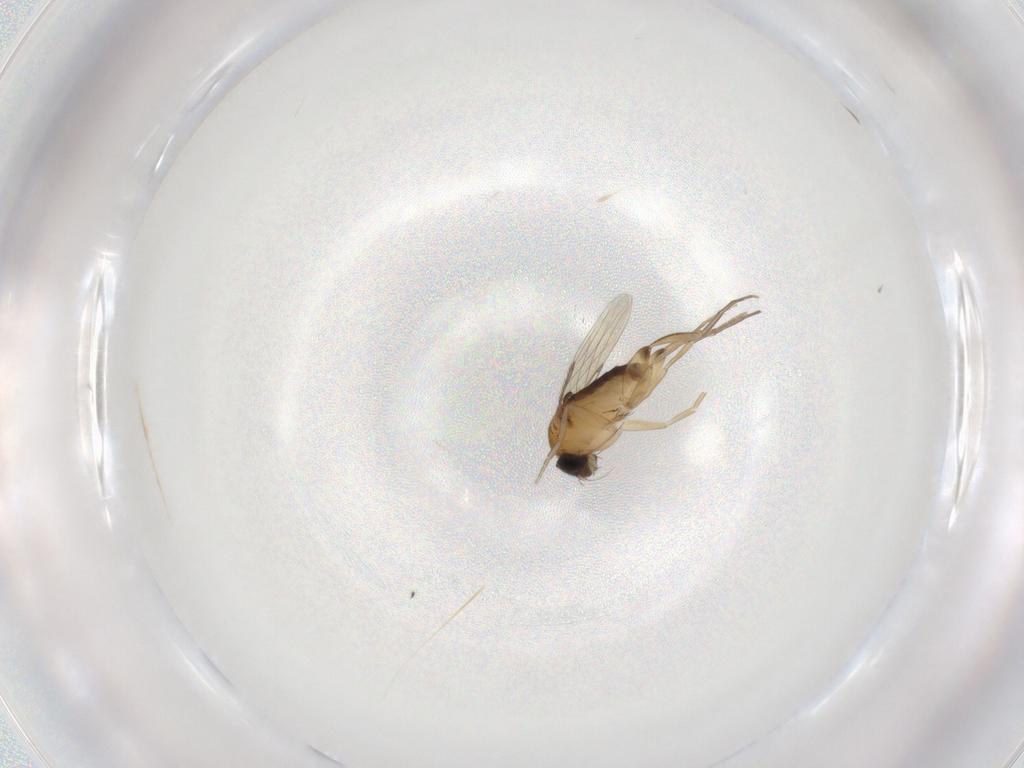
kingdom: Animalia
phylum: Arthropoda
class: Insecta
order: Diptera
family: Phoridae
